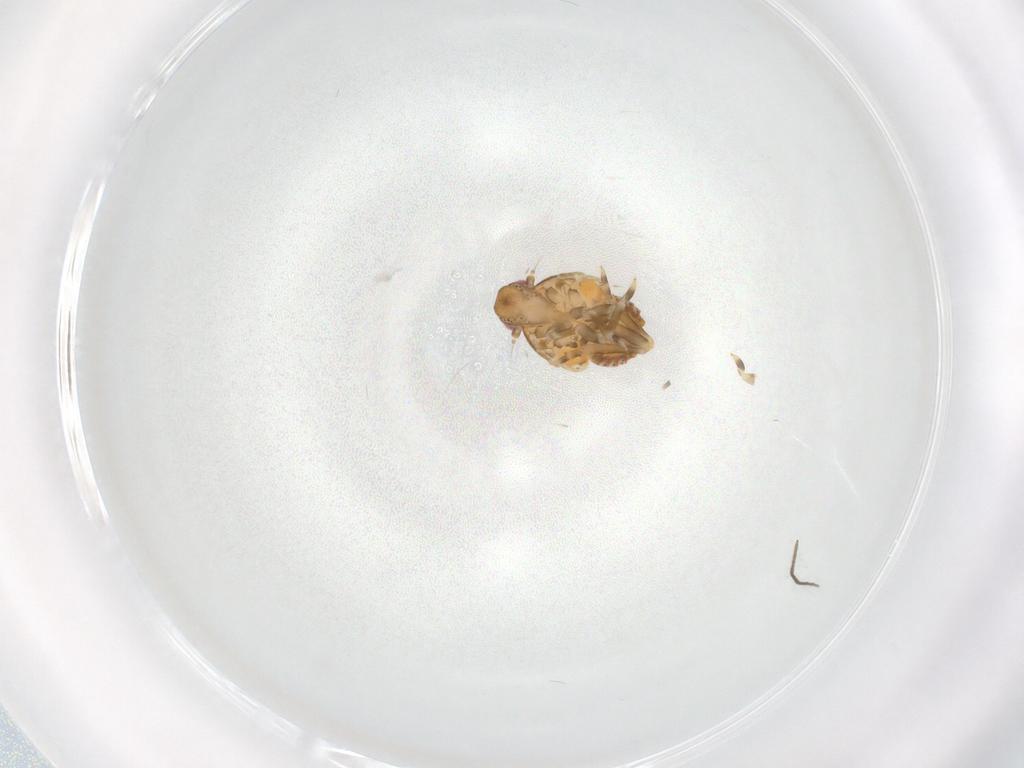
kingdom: Animalia
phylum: Arthropoda
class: Insecta
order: Hemiptera
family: Flatidae
